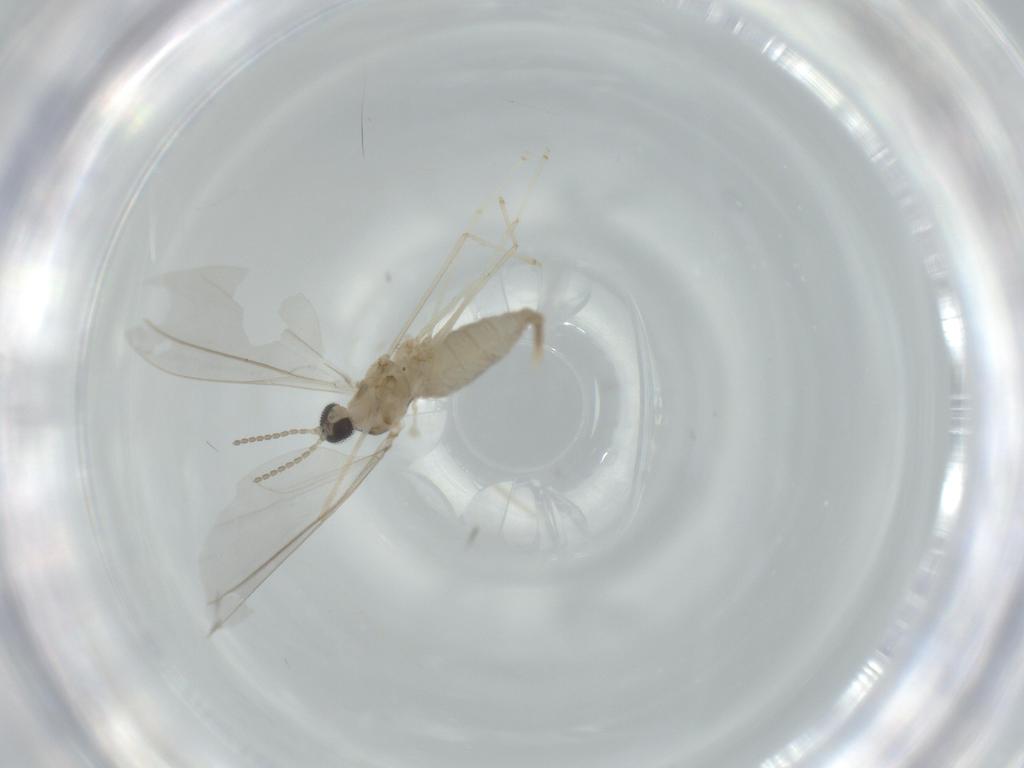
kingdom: Animalia
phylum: Arthropoda
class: Insecta
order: Diptera
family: Cecidomyiidae
